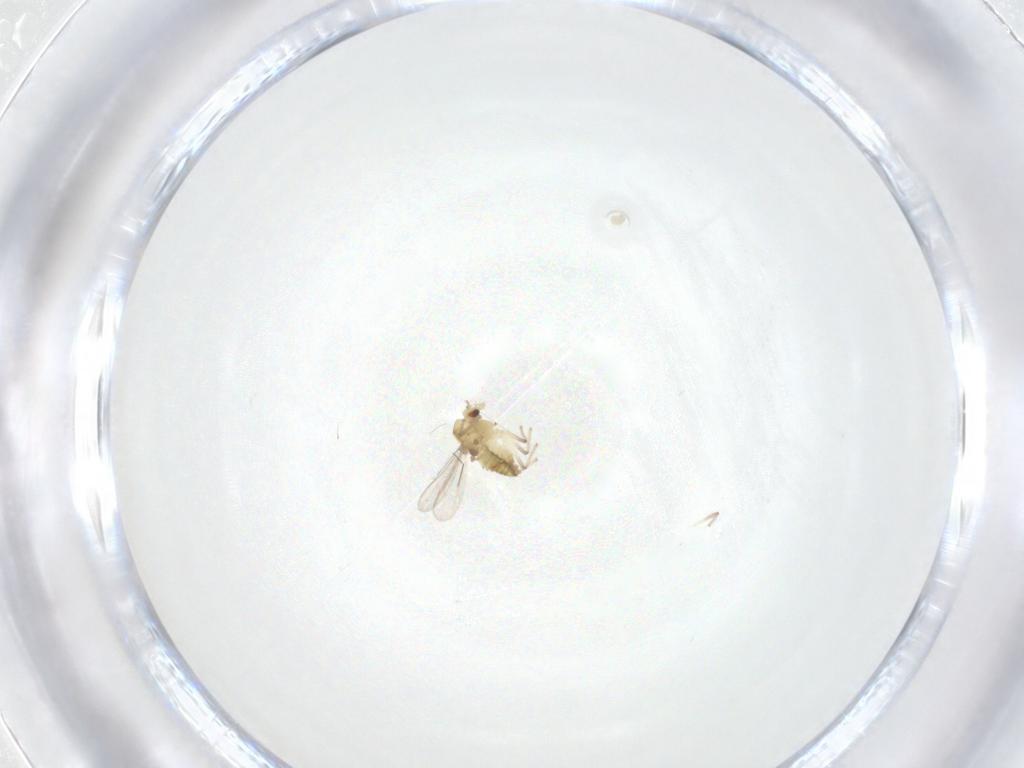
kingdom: Animalia
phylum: Arthropoda
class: Insecta
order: Diptera
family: Chironomidae
